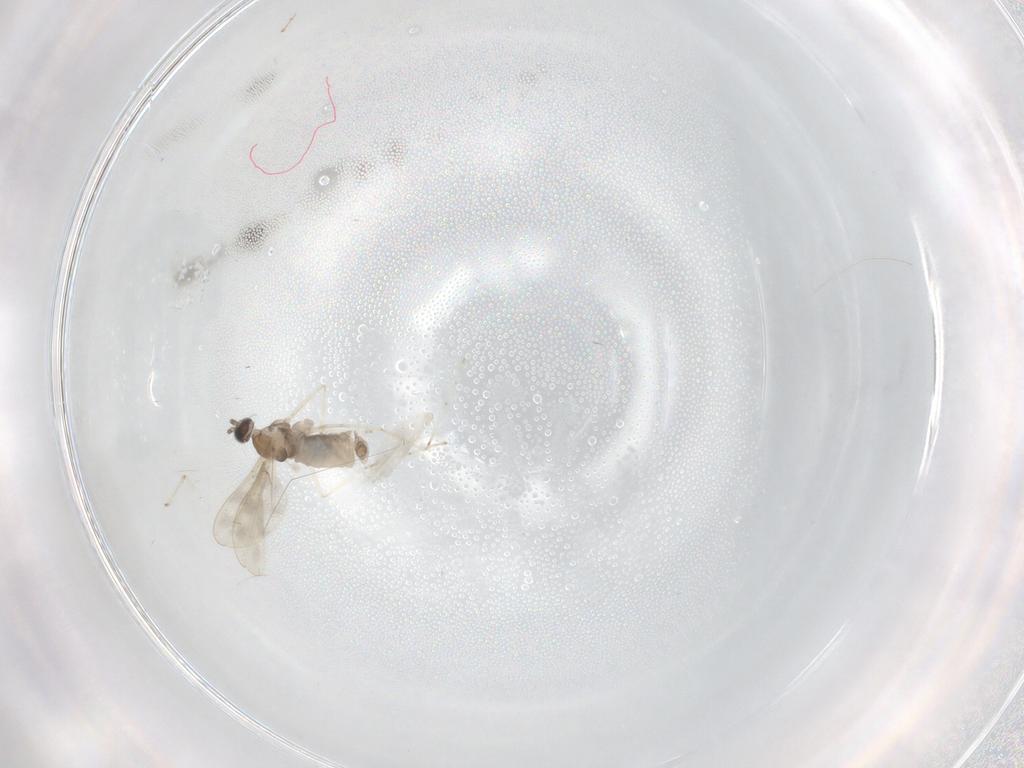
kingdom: Animalia
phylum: Arthropoda
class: Insecta
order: Diptera
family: Cecidomyiidae
